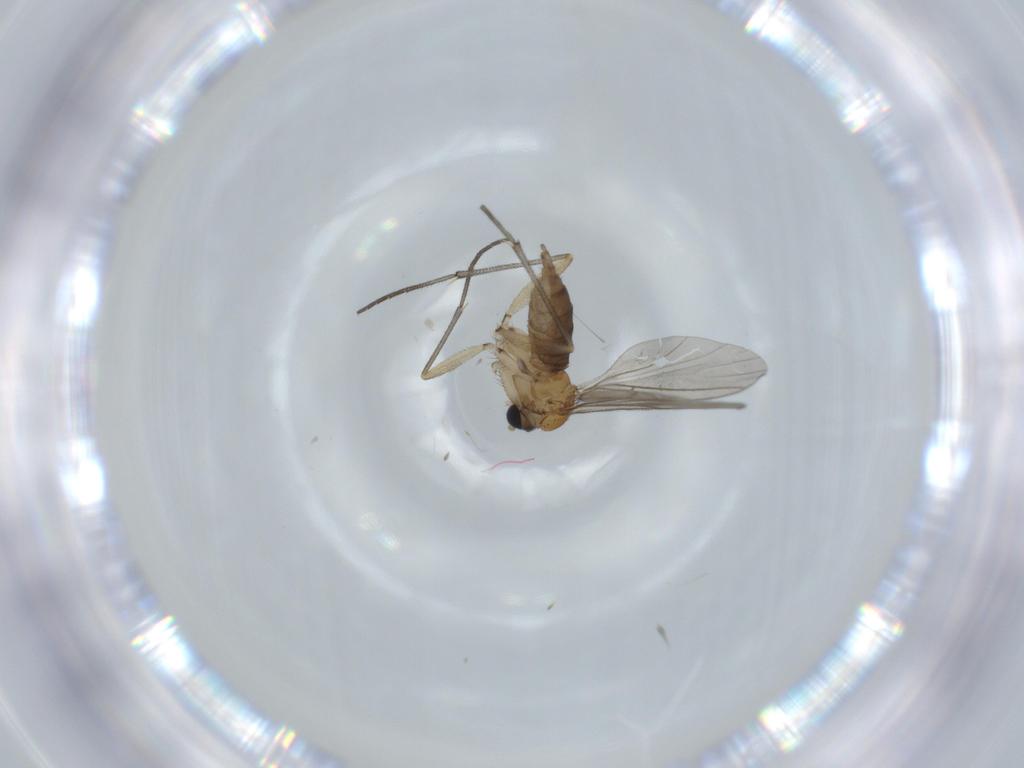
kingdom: Animalia
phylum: Arthropoda
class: Insecta
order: Diptera
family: Sciaridae
